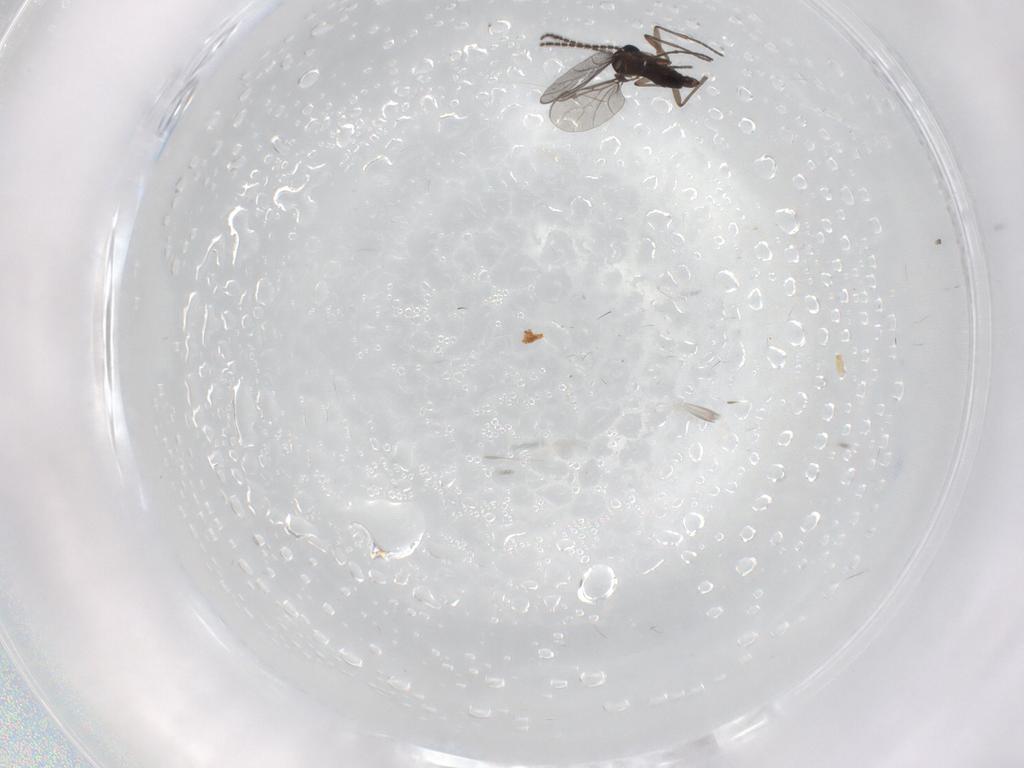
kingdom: Animalia
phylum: Arthropoda
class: Insecta
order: Diptera
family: Sciaridae
